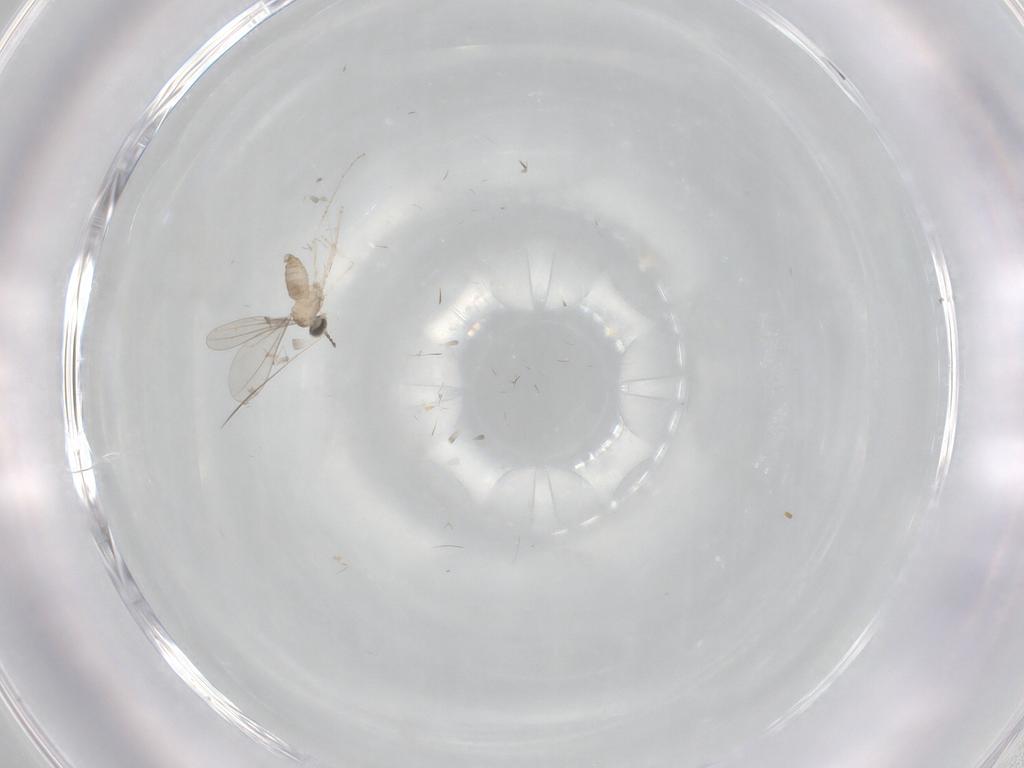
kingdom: Animalia
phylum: Arthropoda
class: Insecta
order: Diptera
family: Cecidomyiidae
